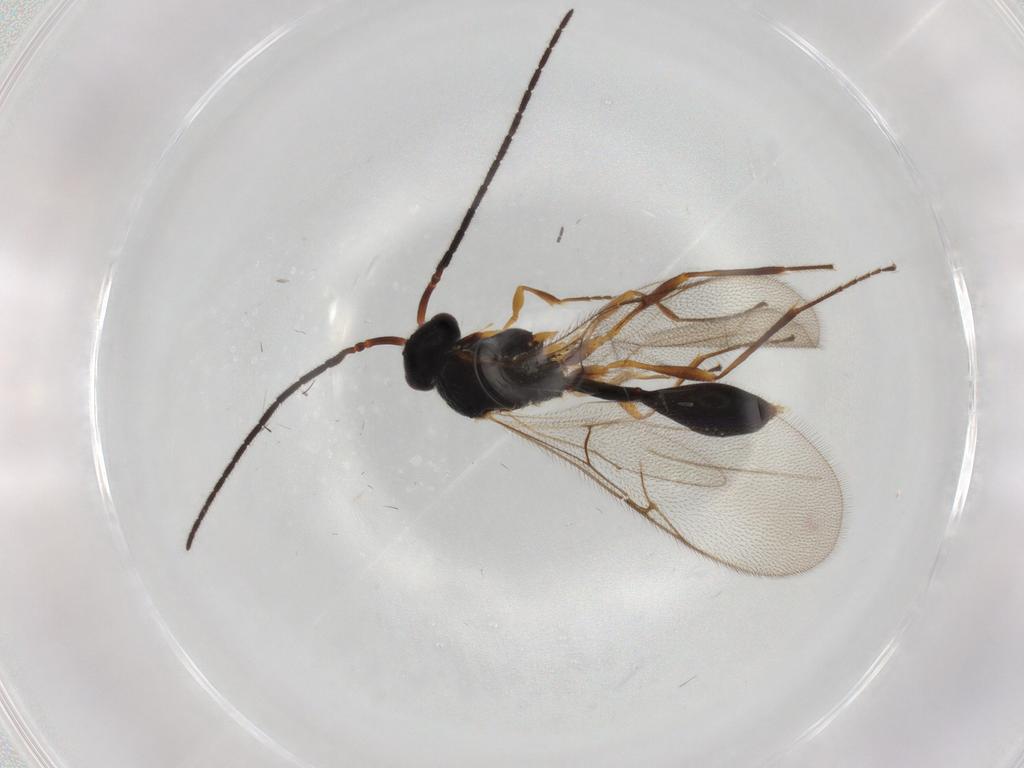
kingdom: Animalia
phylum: Arthropoda
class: Insecta
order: Hymenoptera
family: Diapriidae
